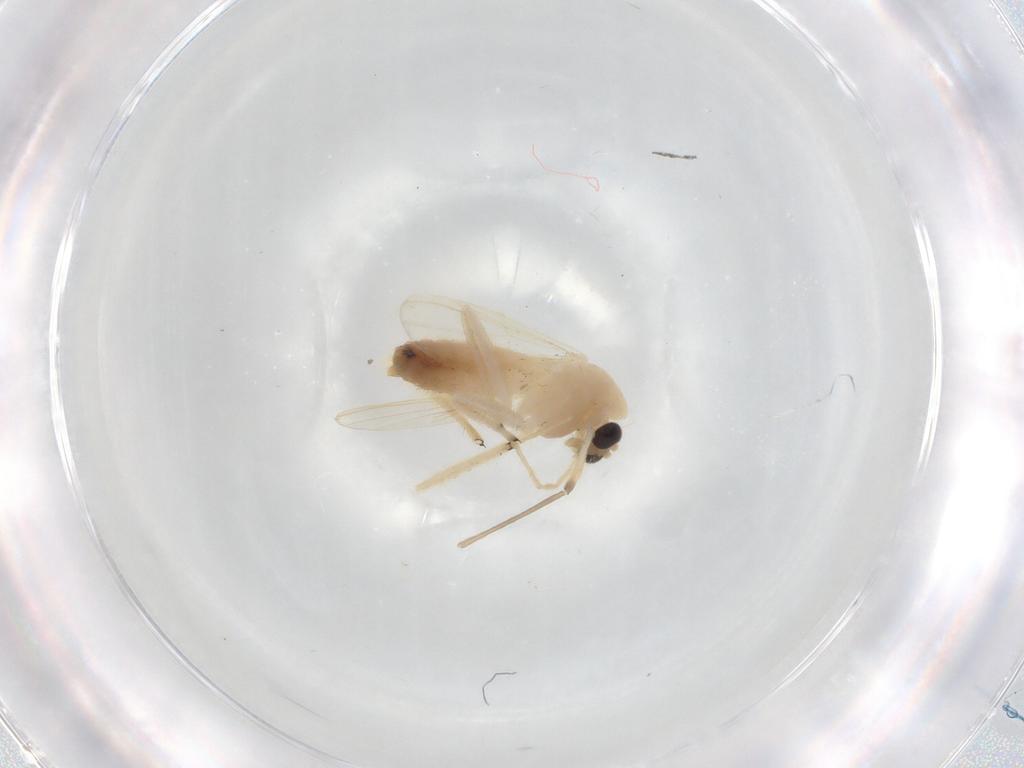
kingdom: Animalia
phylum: Arthropoda
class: Insecta
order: Diptera
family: Chironomidae
